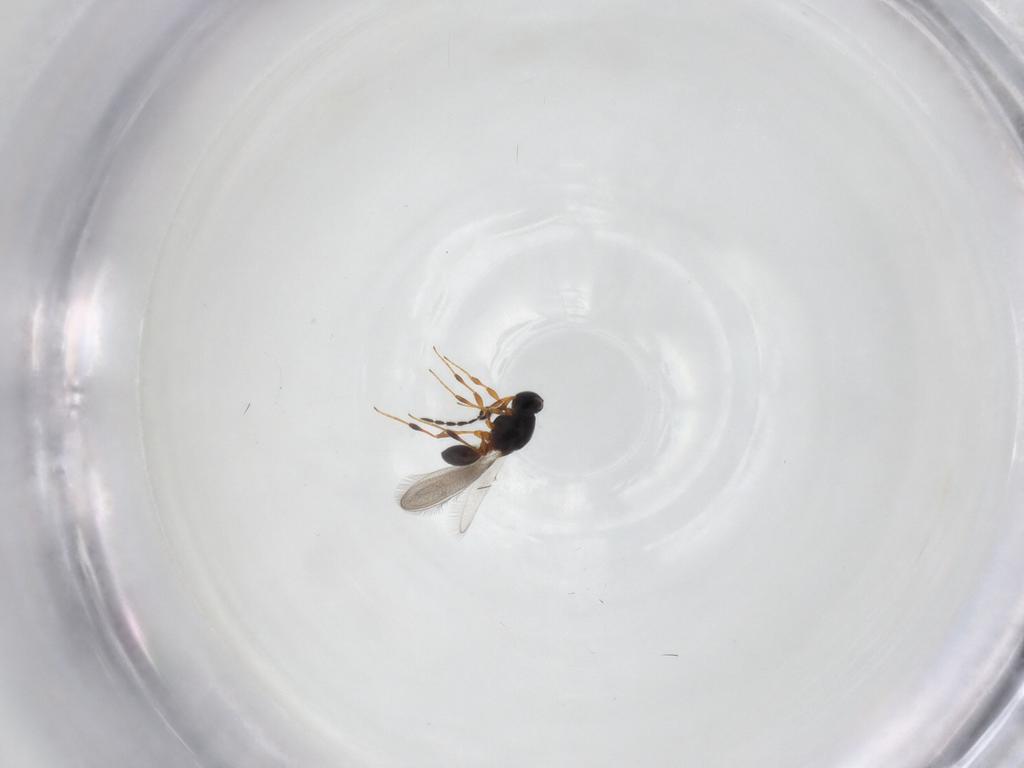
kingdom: Animalia
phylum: Arthropoda
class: Insecta
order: Hymenoptera
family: Platygastridae
